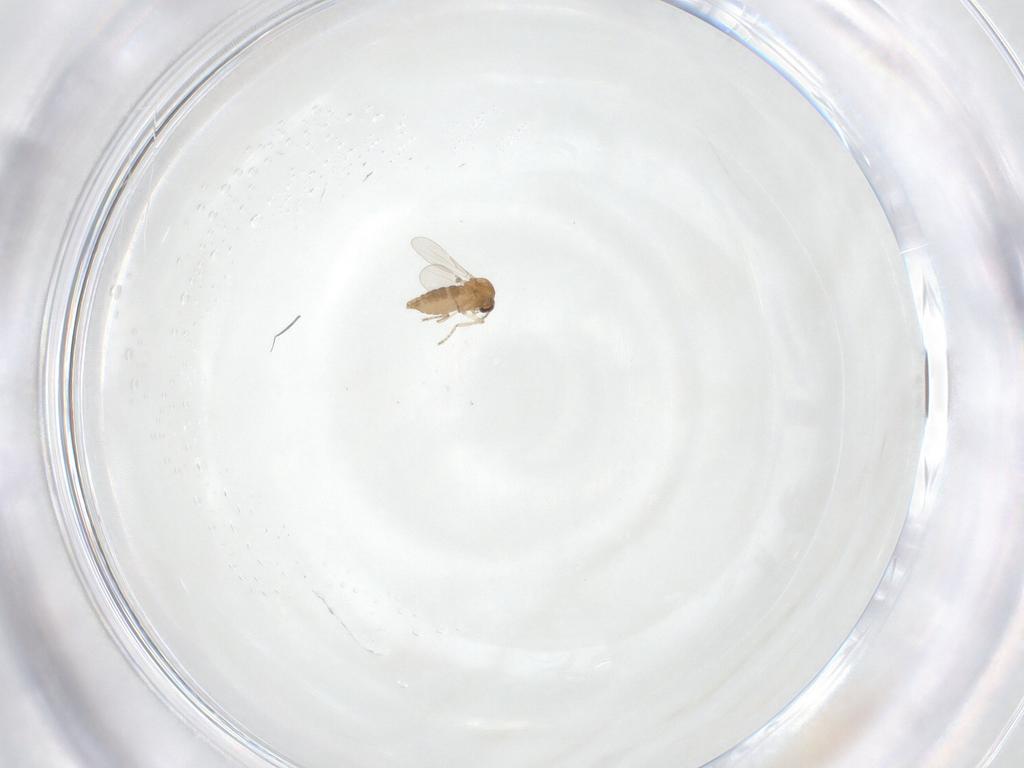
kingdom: Animalia
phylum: Arthropoda
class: Insecta
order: Diptera
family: Ceratopogonidae
